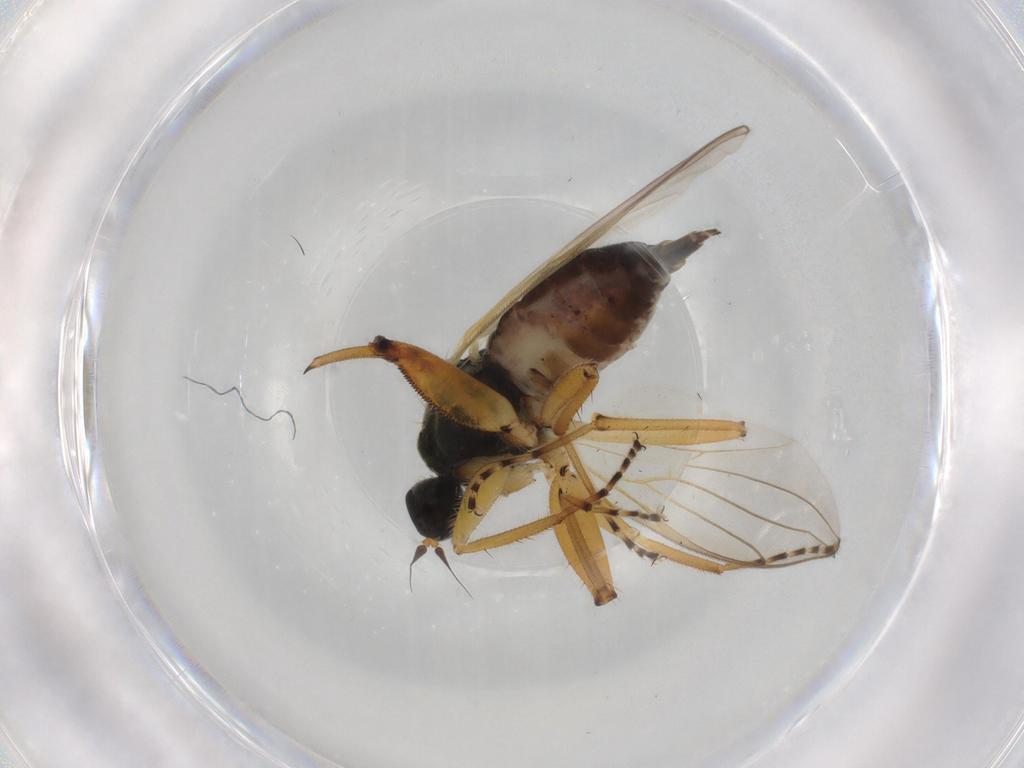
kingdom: Animalia
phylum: Arthropoda
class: Insecta
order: Diptera
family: Hybotidae
